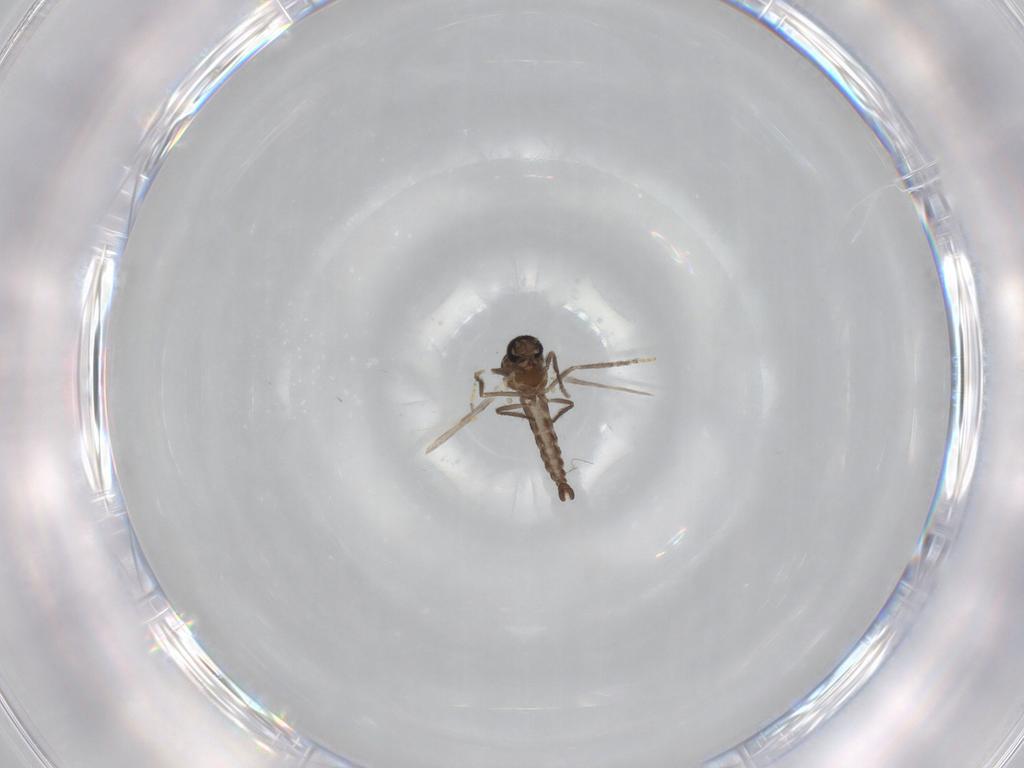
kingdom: Animalia
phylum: Arthropoda
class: Insecta
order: Diptera
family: Ceratopogonidae
